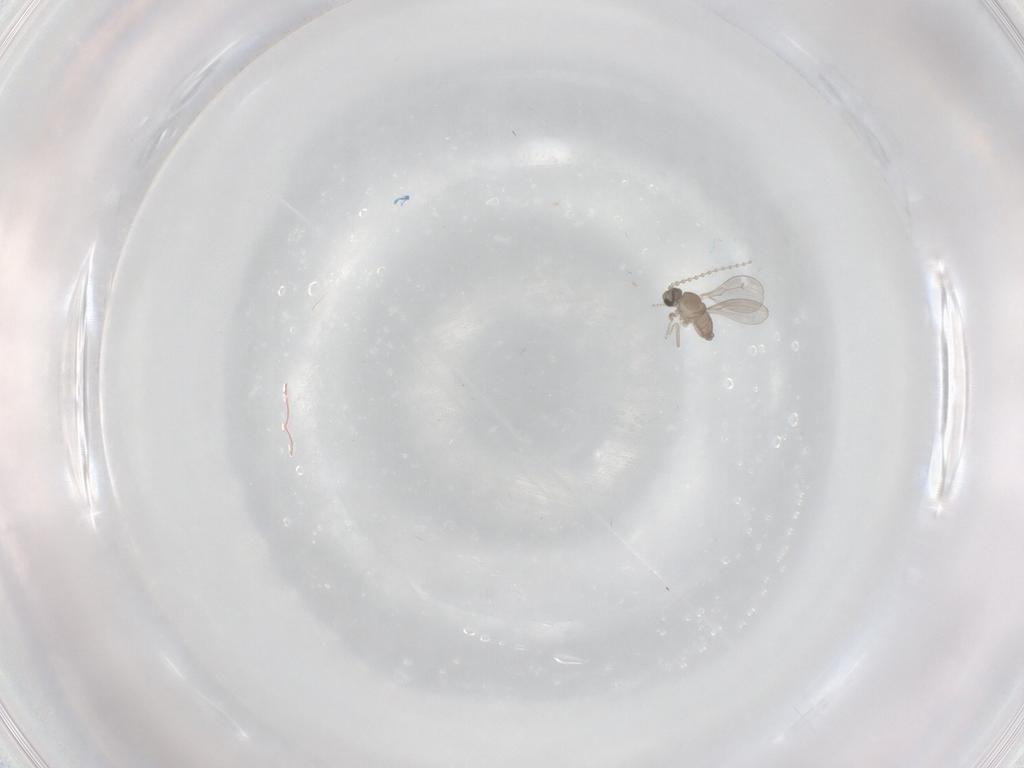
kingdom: Animalia
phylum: Arthropoda
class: Insecta
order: Diptera
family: Cecidomyiidae
